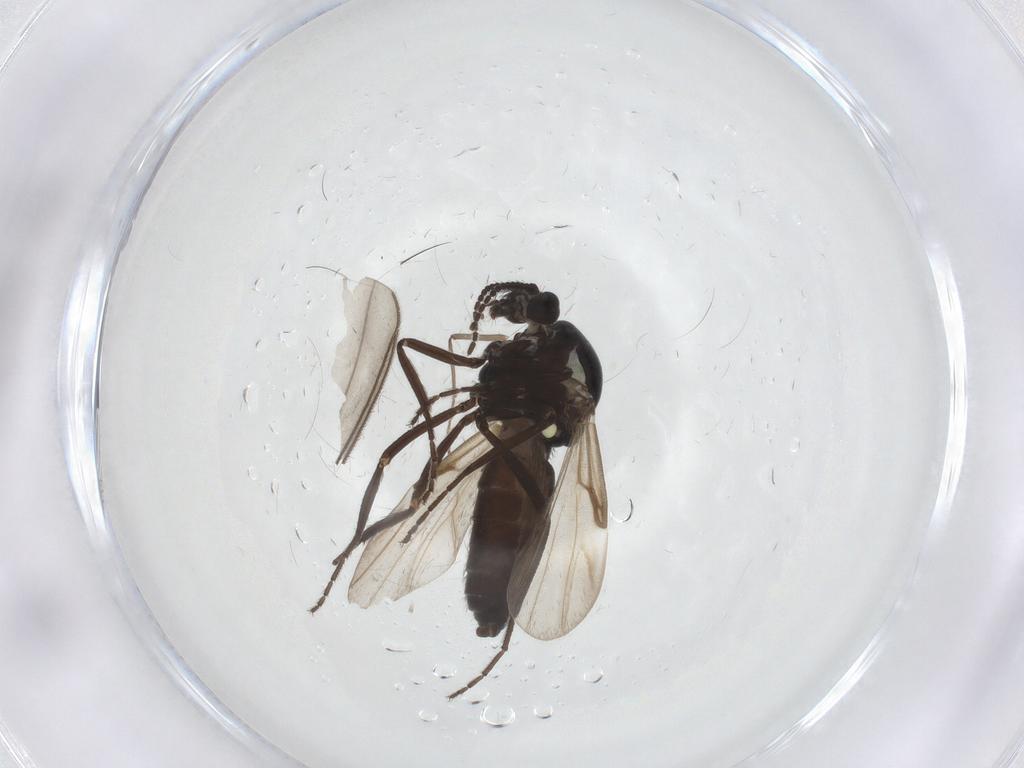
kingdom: Animalia
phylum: Arthropoda
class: Insecta
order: Diptera
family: Ceratopogonidae
